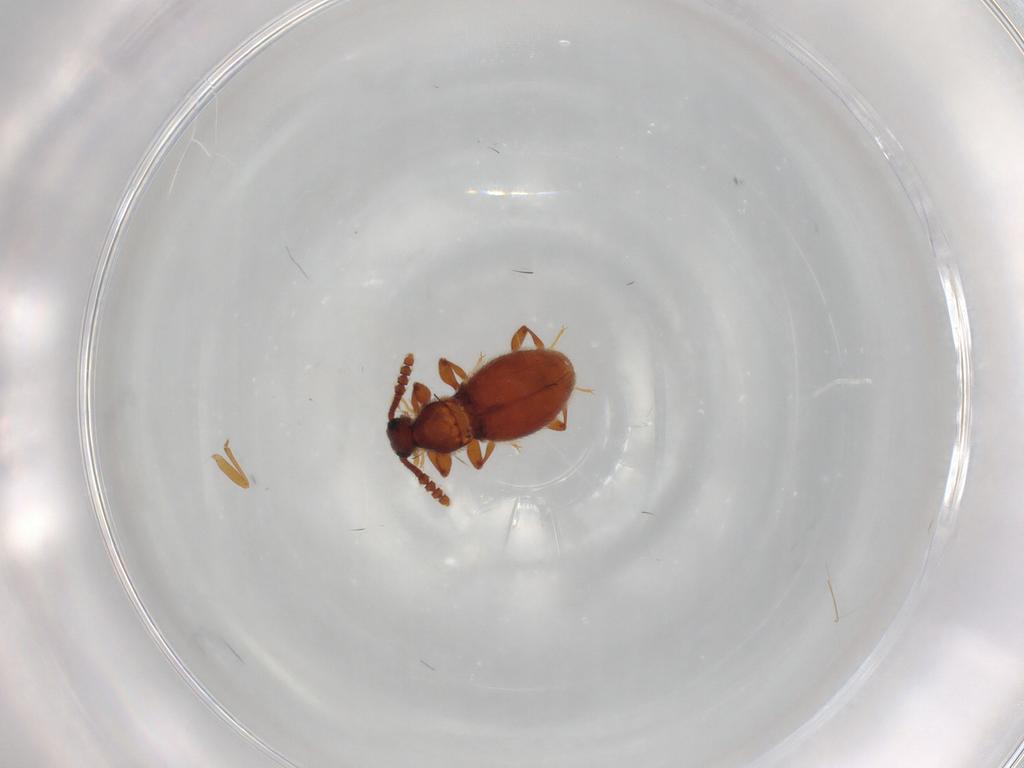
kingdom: Animalia
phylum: Arthropoda
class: Insecta
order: Coleoptera
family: Staphylinidae
